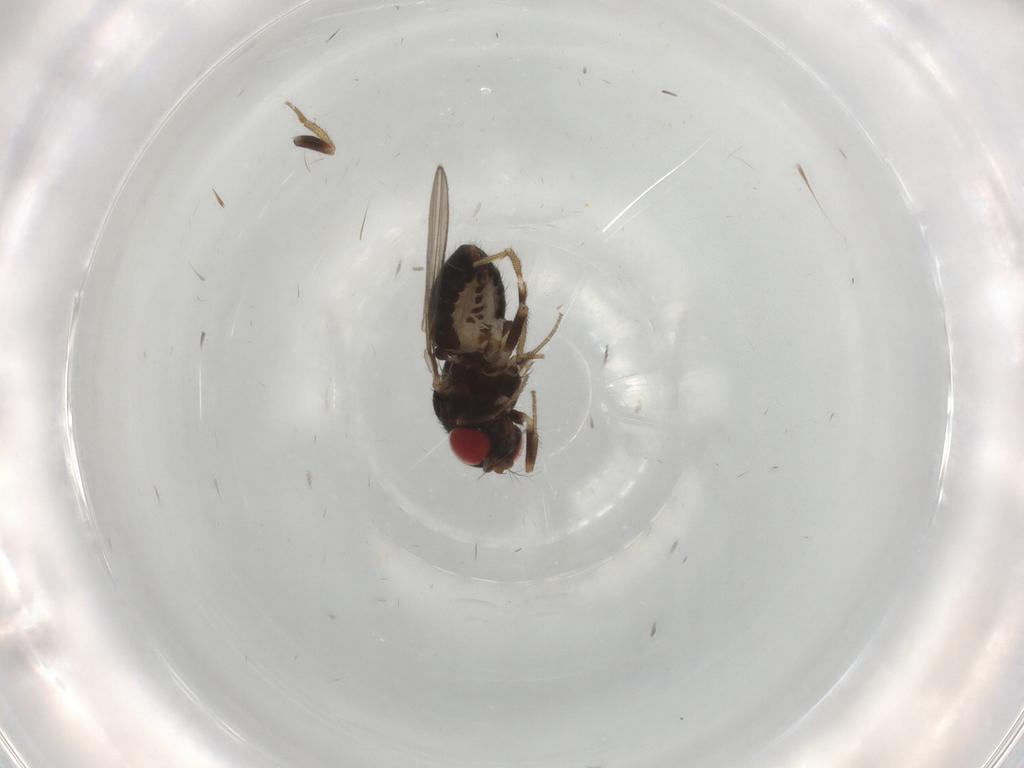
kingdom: Animalia
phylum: Arthropoda
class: Insecta
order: Diptera
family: Drosophilidae
